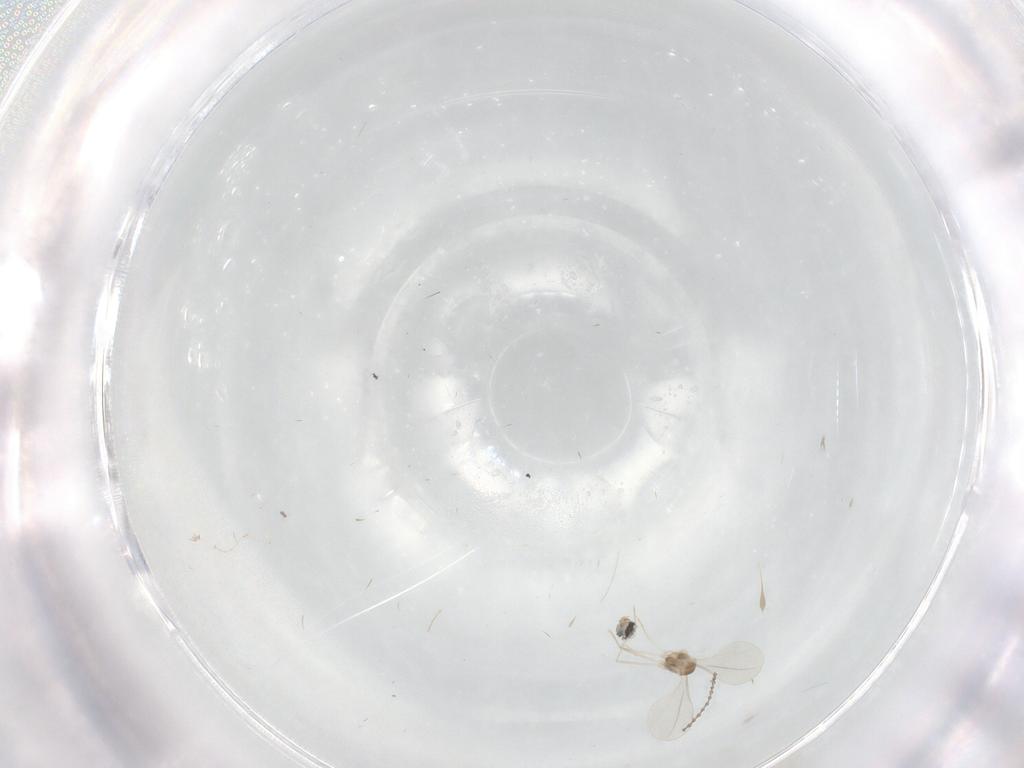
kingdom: Animalia
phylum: Arthropoda
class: Insecta
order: Diptera
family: Cecidomyiidae
